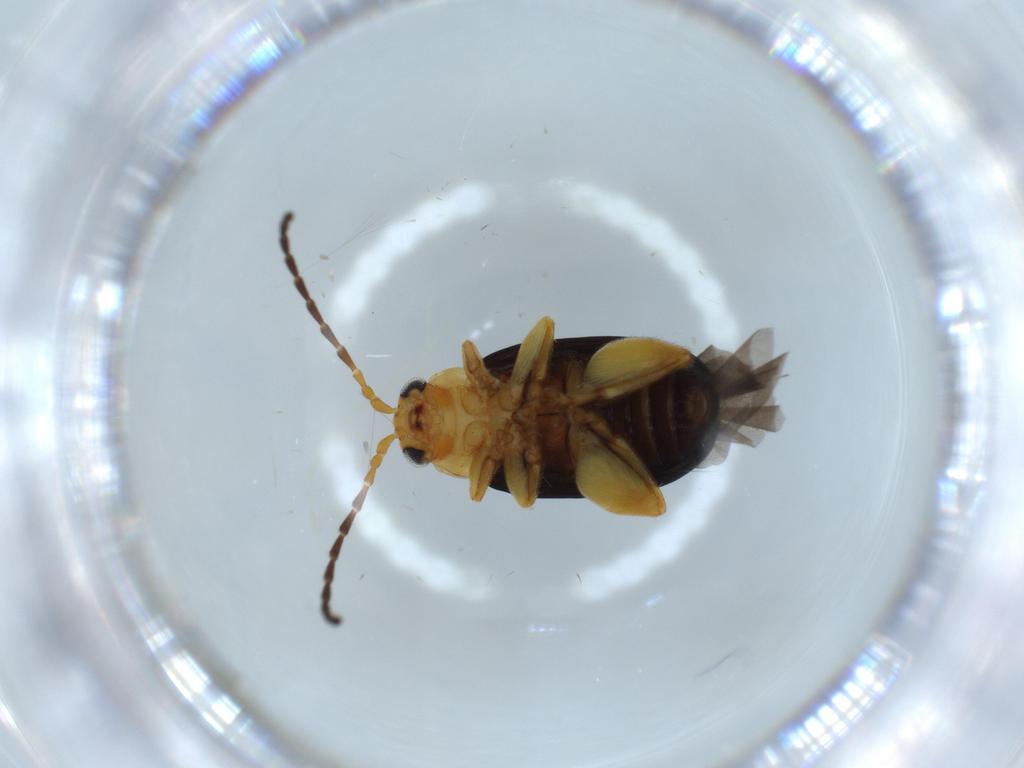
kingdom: Animalia
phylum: Arthropoda
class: Insecta
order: Coleoptera
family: Chrysomelidae
